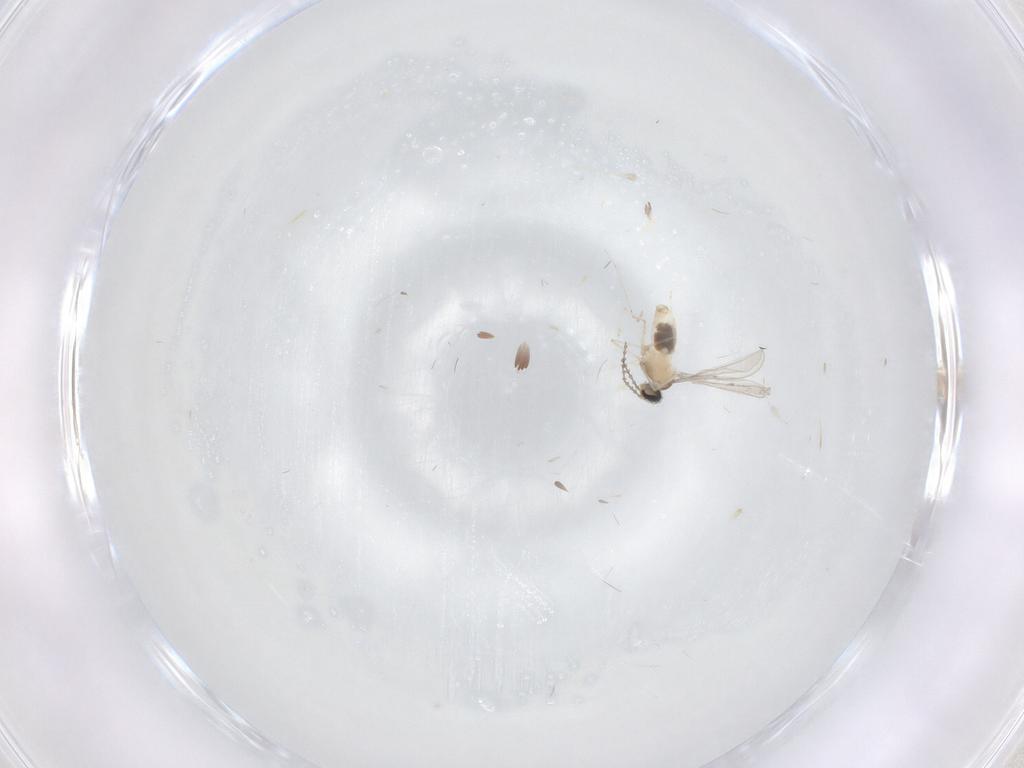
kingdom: Animalia
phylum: Arthropoda
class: Insecta
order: Diptera
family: Cecidomyiidae
